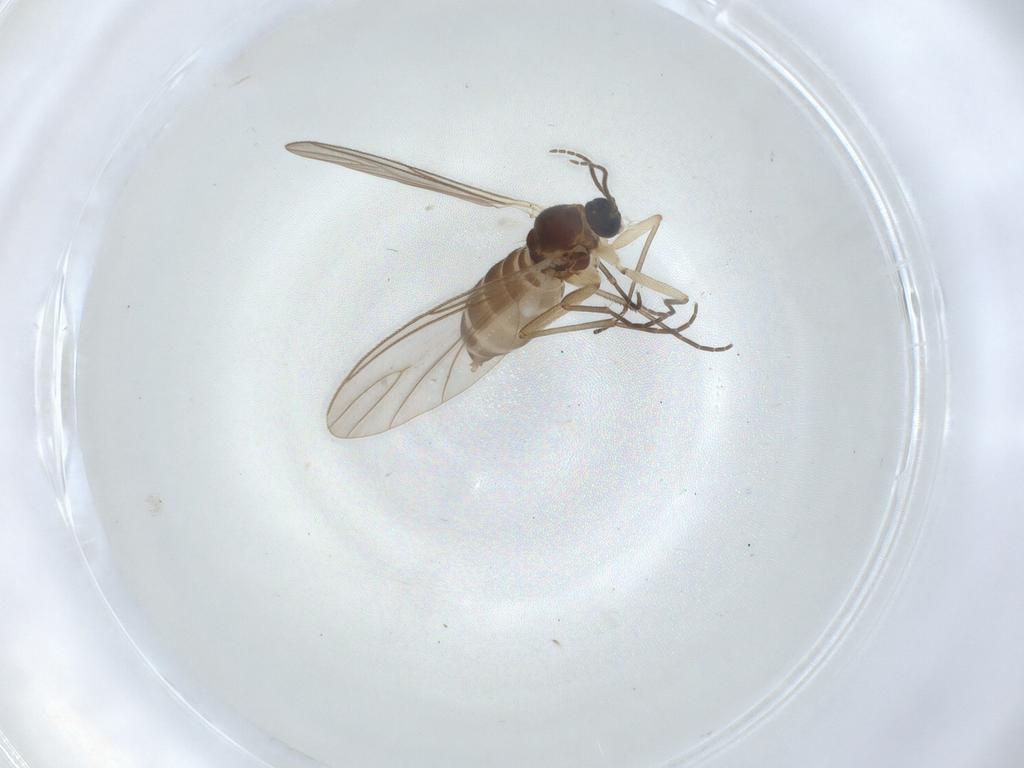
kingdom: Animalia
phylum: Arthropoda
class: Insecta
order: Diptera
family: Sciaridae
